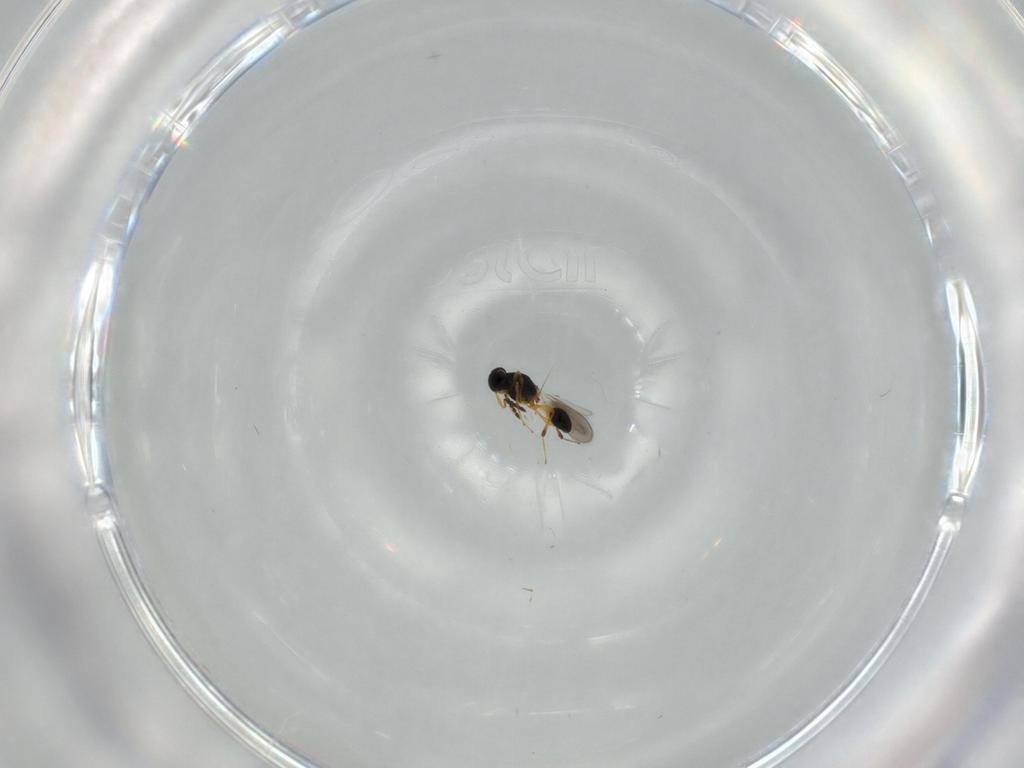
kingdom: Animalia
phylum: Arthropoda
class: Insecta
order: Hymenoptera
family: Platygastridae
